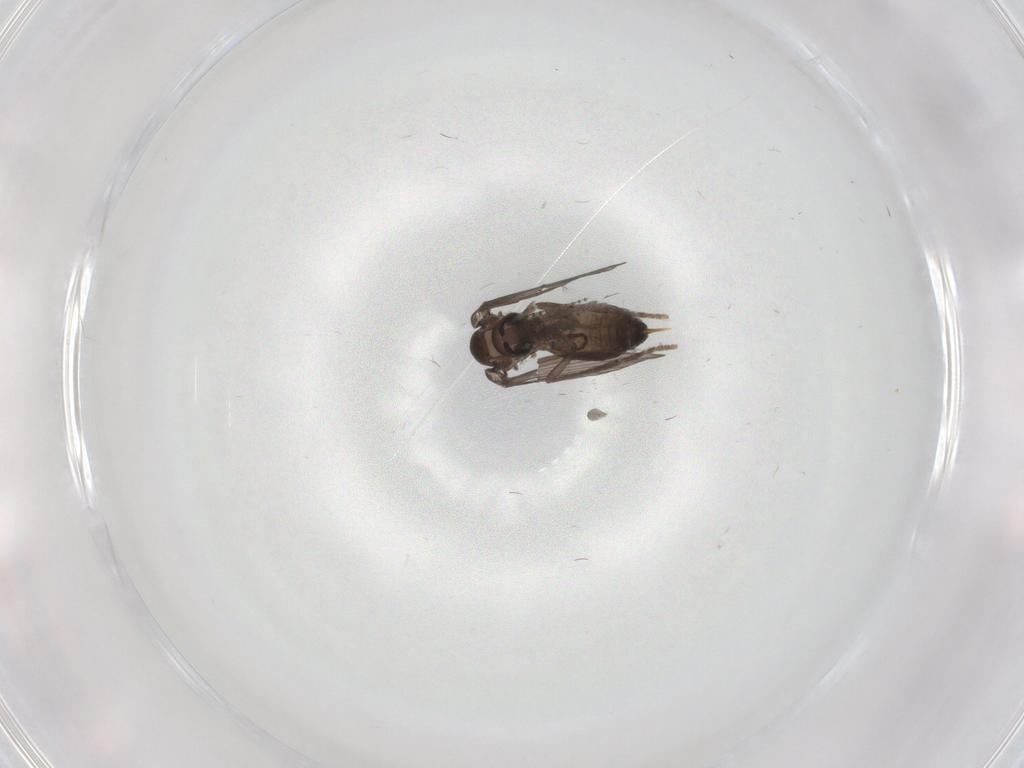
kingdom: Animalia
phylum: Arthropoda
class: Insecta
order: Diptera
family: Psychodidae
